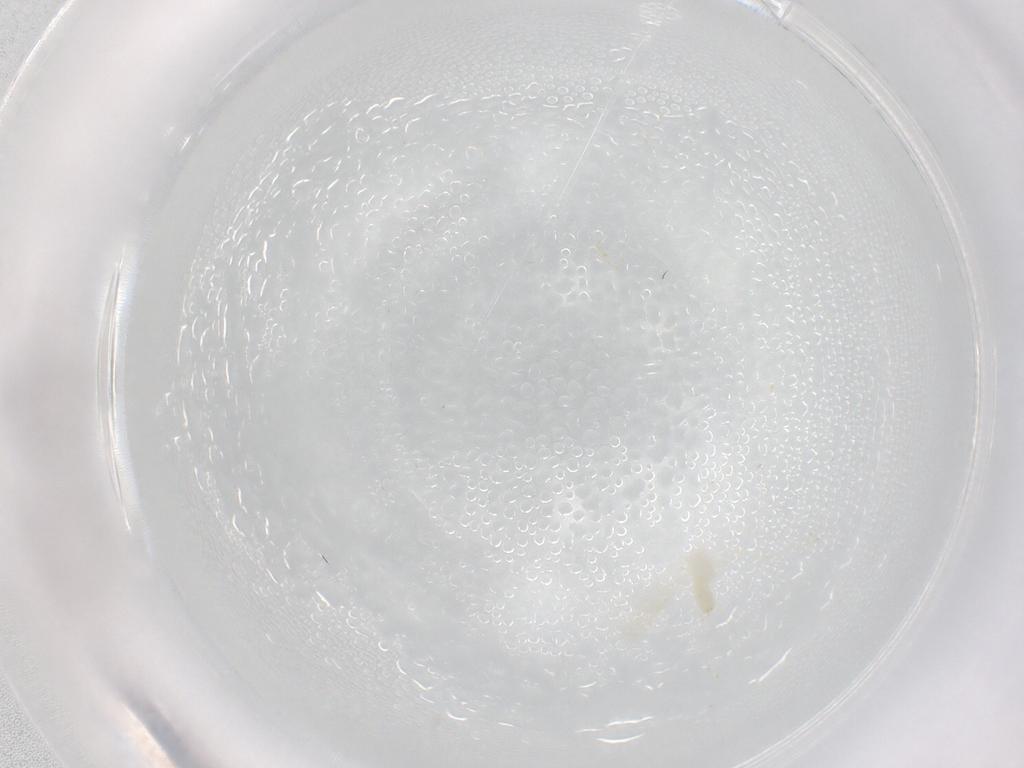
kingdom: Animalia
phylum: Arthropoda
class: Insecta
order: Diptera
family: Cecidomyiidae
